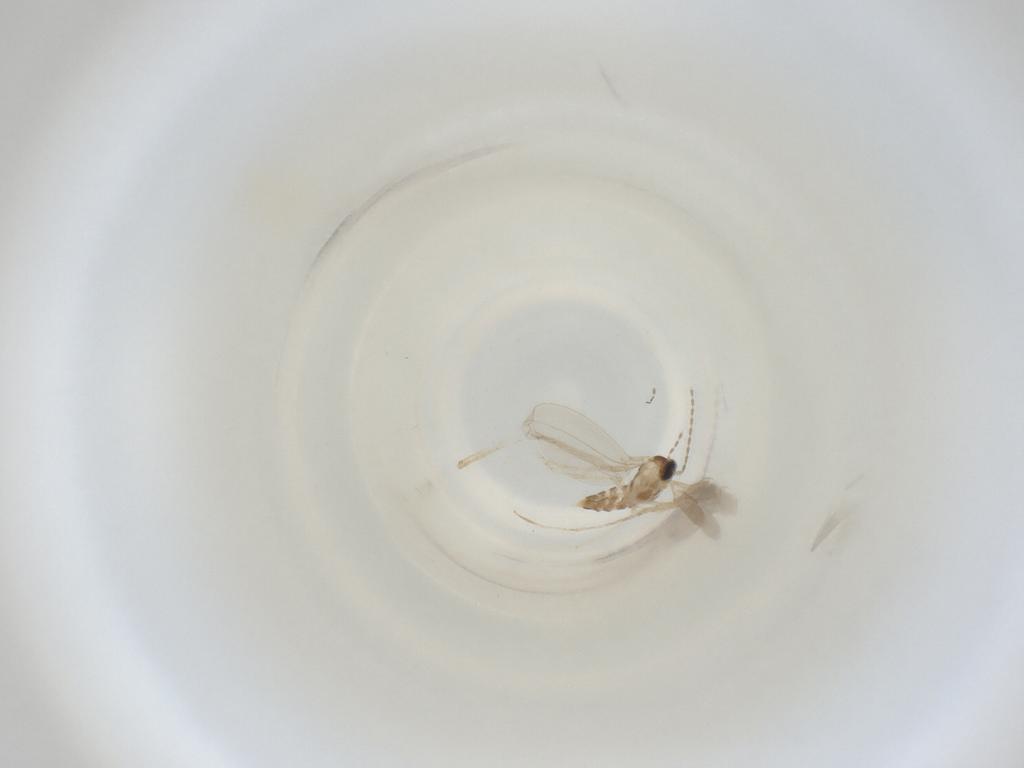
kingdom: Animalia
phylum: Arthropoda
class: Insecta
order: Diptera
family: Cecidomyiidae
